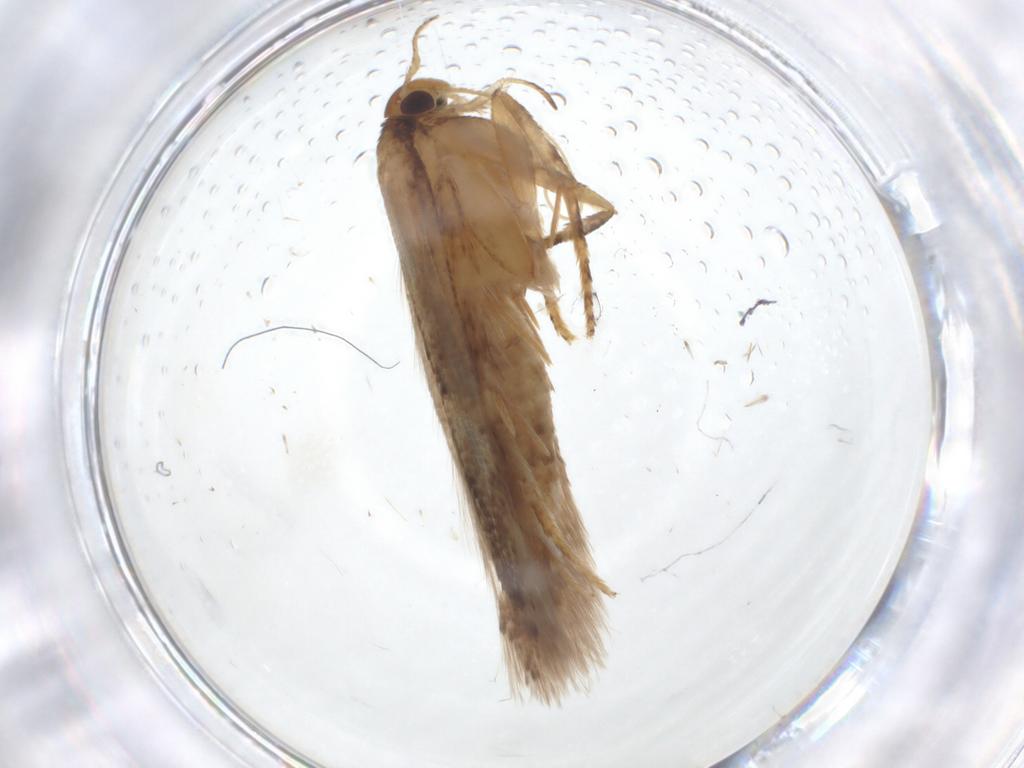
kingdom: Animalia
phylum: Arthropoda
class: Insecta
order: Lepidoptera
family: Gelechiidae
